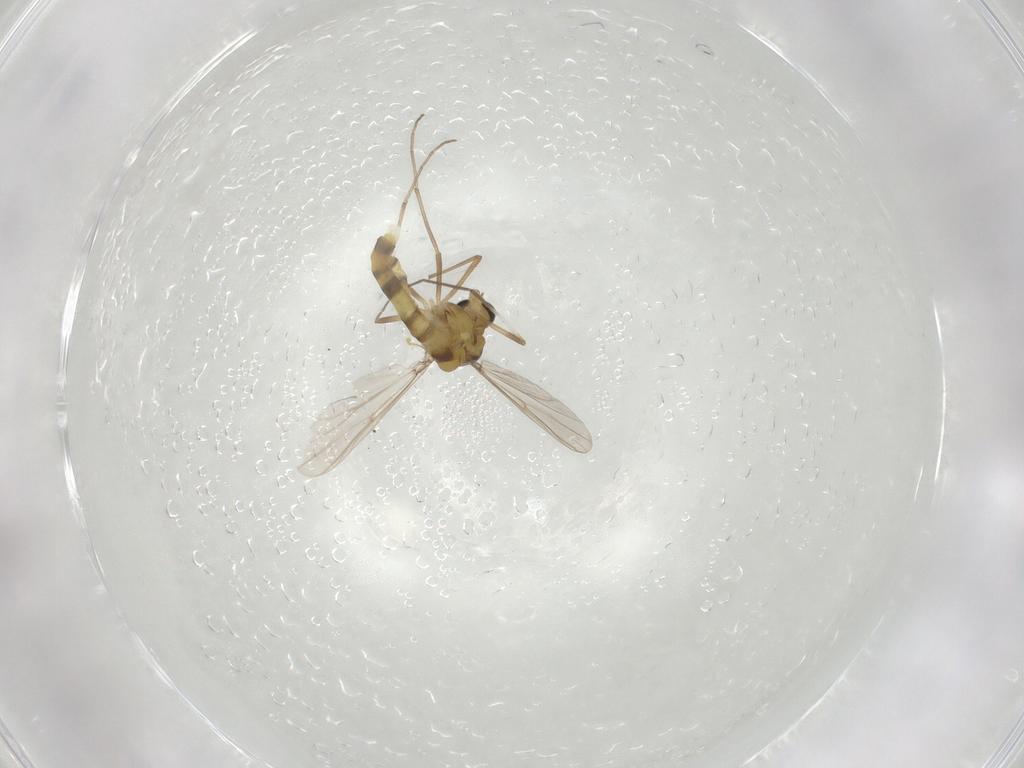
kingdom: Animalia
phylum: Arthropoda
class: Insecta
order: Diptera
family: Chironomidae
